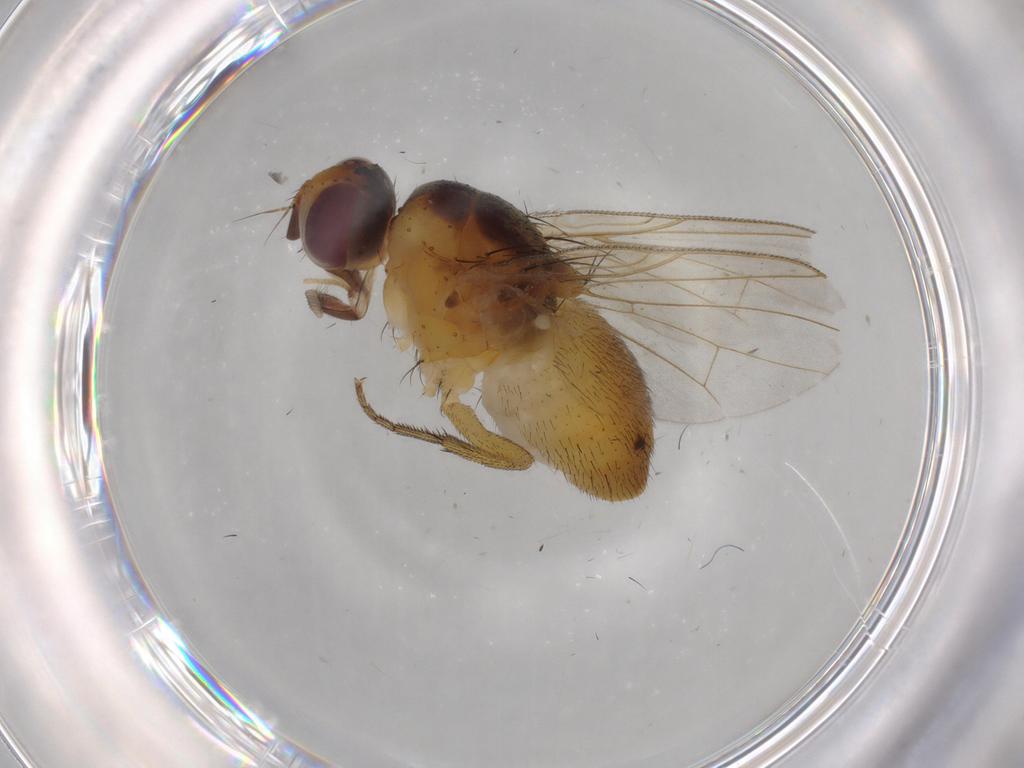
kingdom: Animalia
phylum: Arthropoda
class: Insecta
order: Diptera
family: Muscidae
